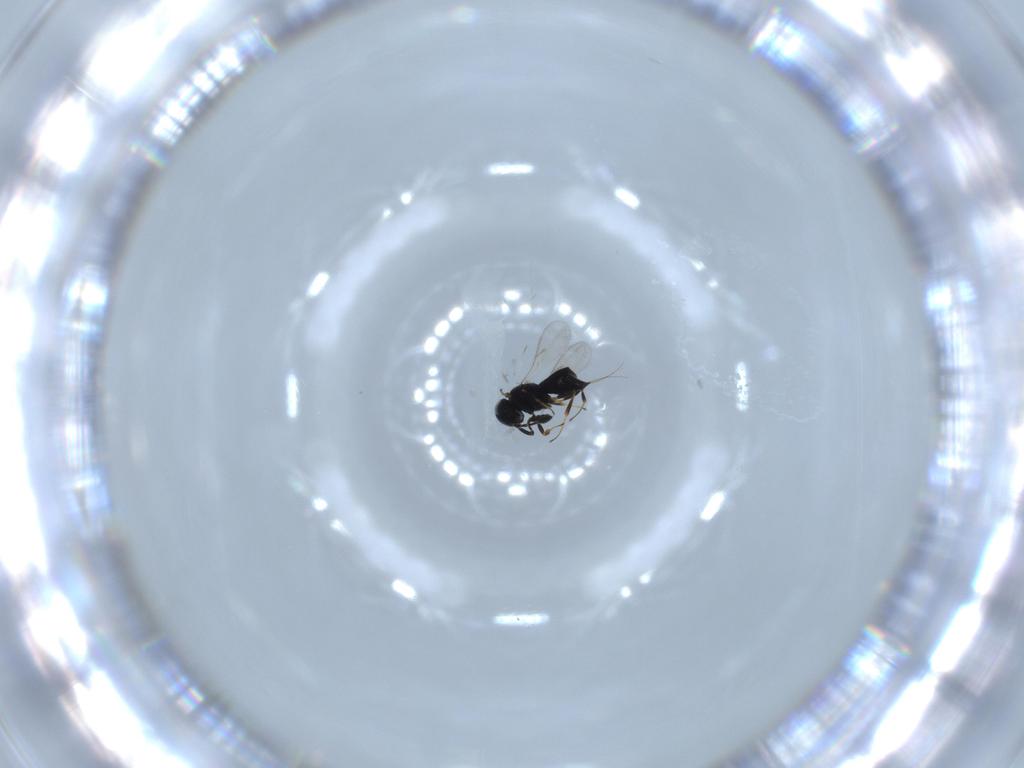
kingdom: Animalia
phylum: Arthropoda
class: Insecta
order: Hymenoptera
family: Scelionidae
